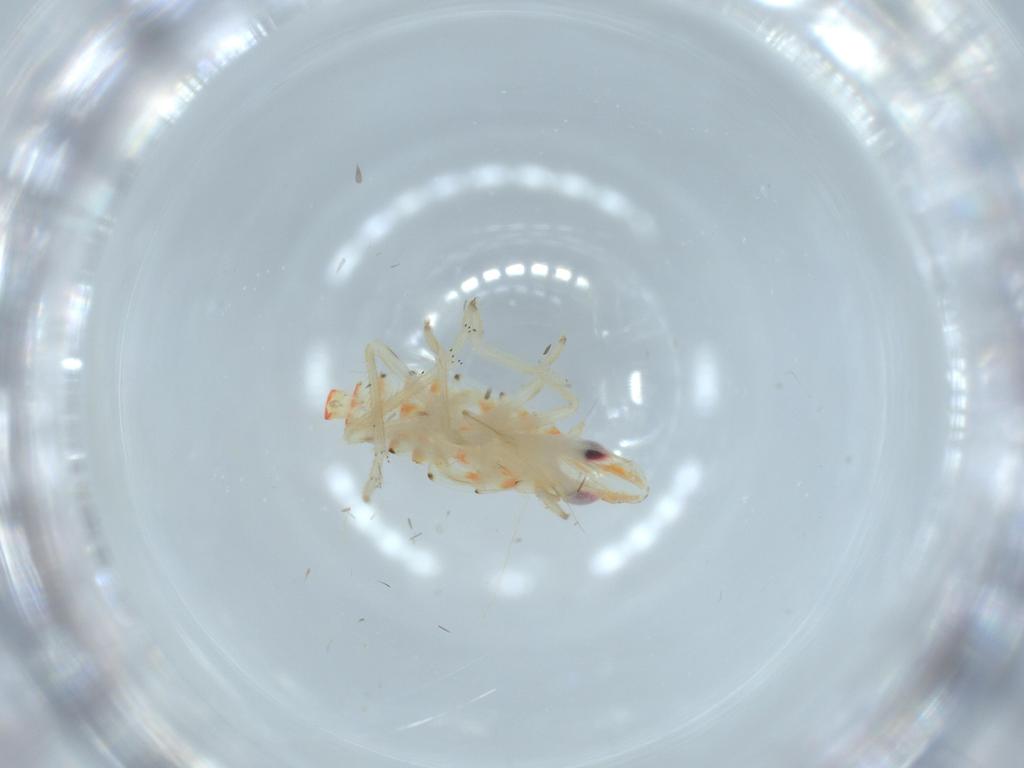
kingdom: Animalia
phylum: Arthropoda
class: Insecta
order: Hemiptera
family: Tropiduchidae
